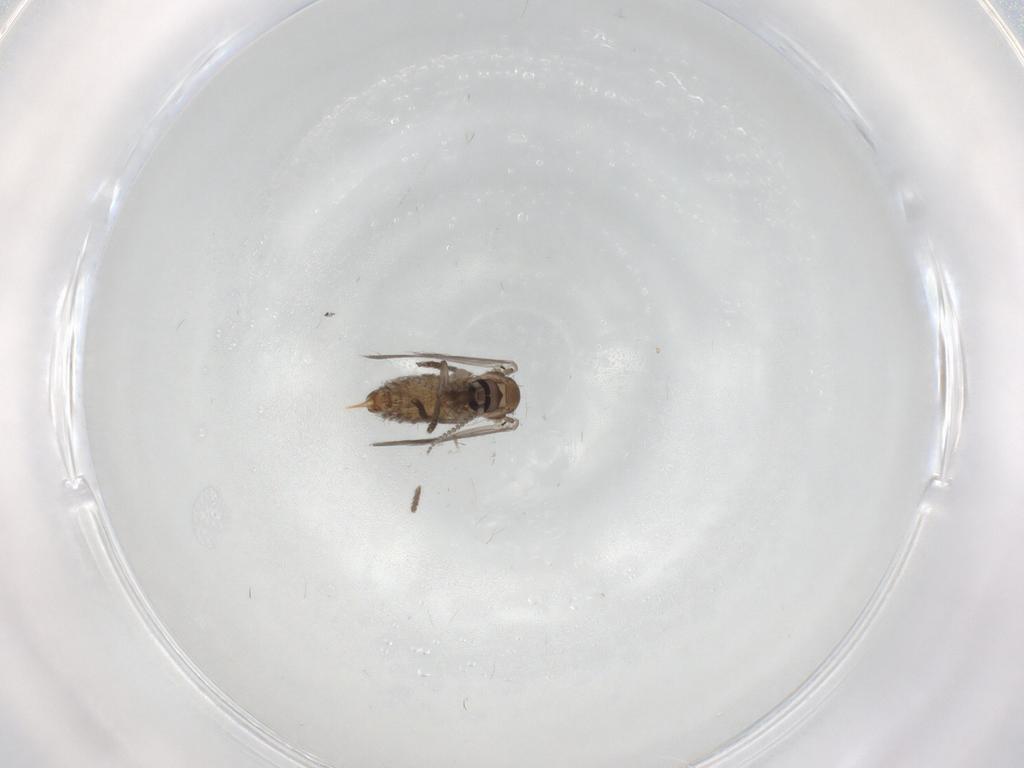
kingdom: Animalia
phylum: Arthropoda
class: Insecta
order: Diptera
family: Psychodidae
